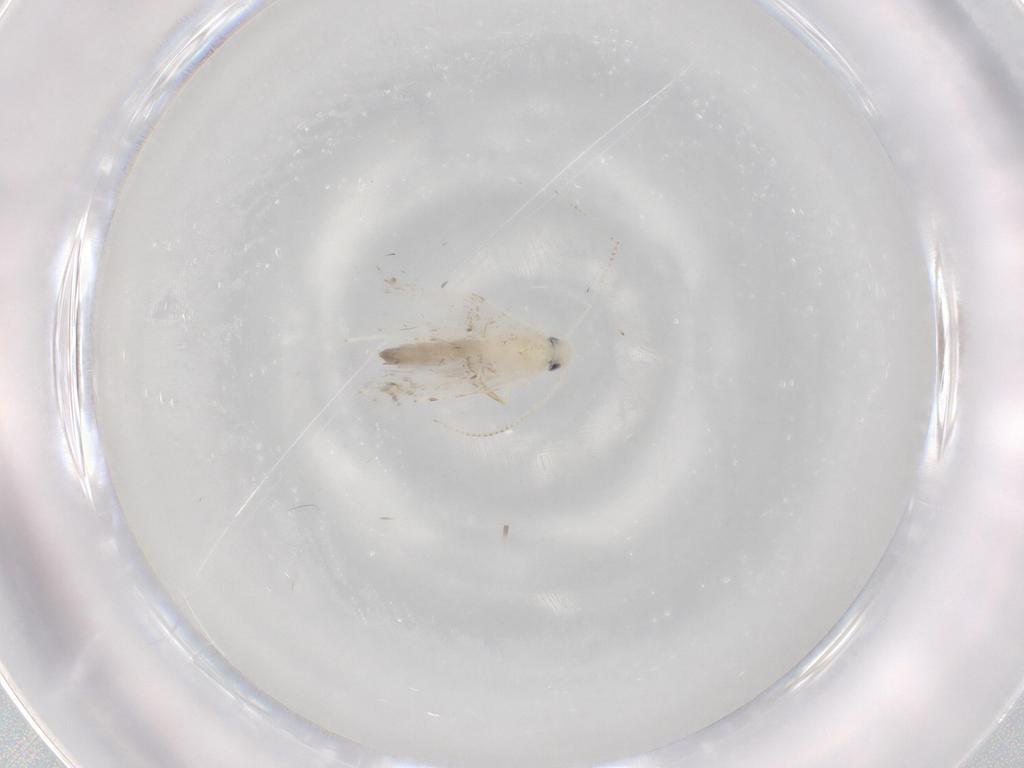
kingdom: Animalia
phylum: Arthropoda
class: Insecta
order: Lepidoptera
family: Gracillariidae
